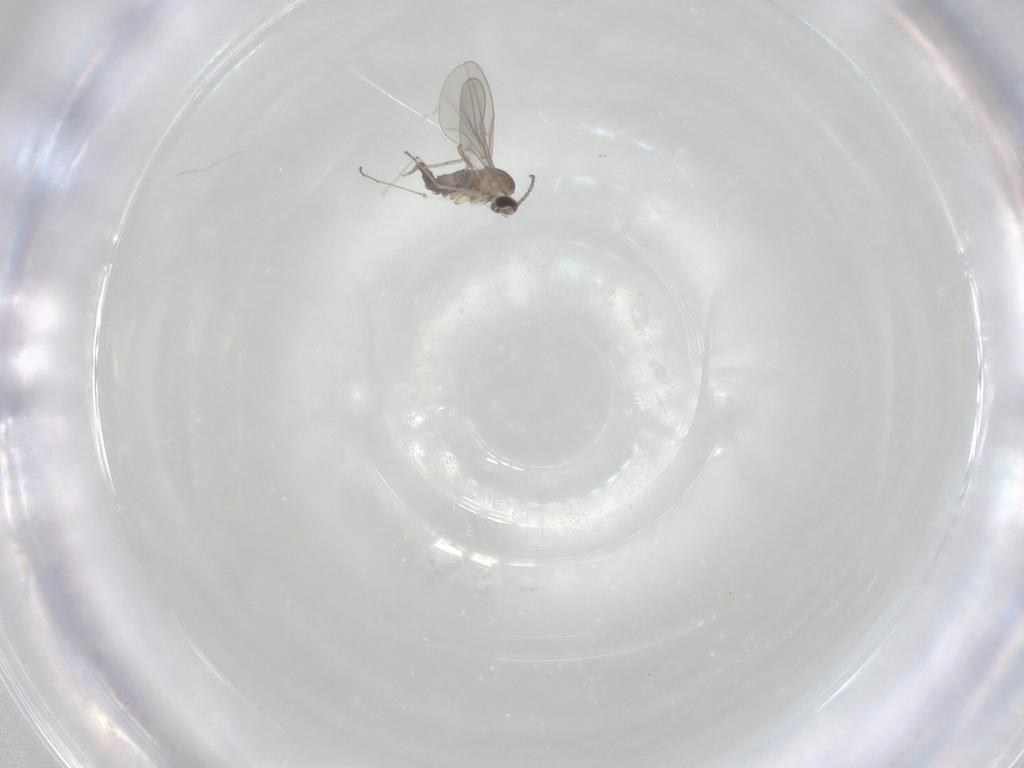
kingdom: Animalia
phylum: Arthropoda
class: Insecta
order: Diptera
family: Cecidomyiidae
